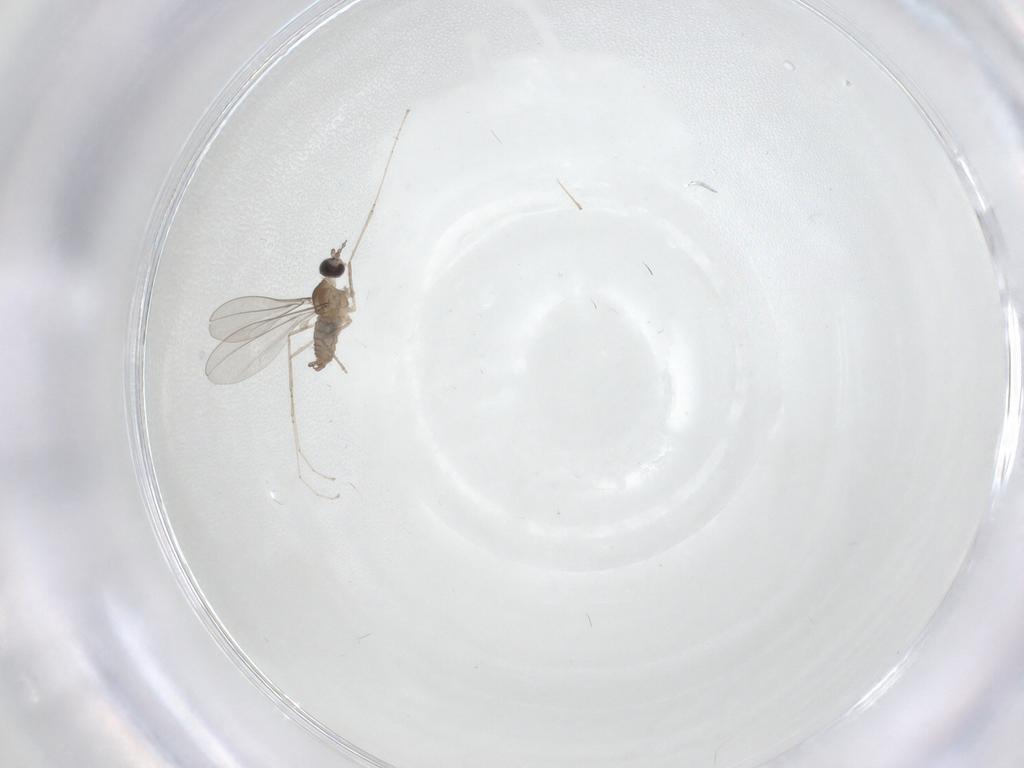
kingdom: Animalia
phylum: Arthropoda
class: Insecta
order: Diptera
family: Cecidomyiidae
